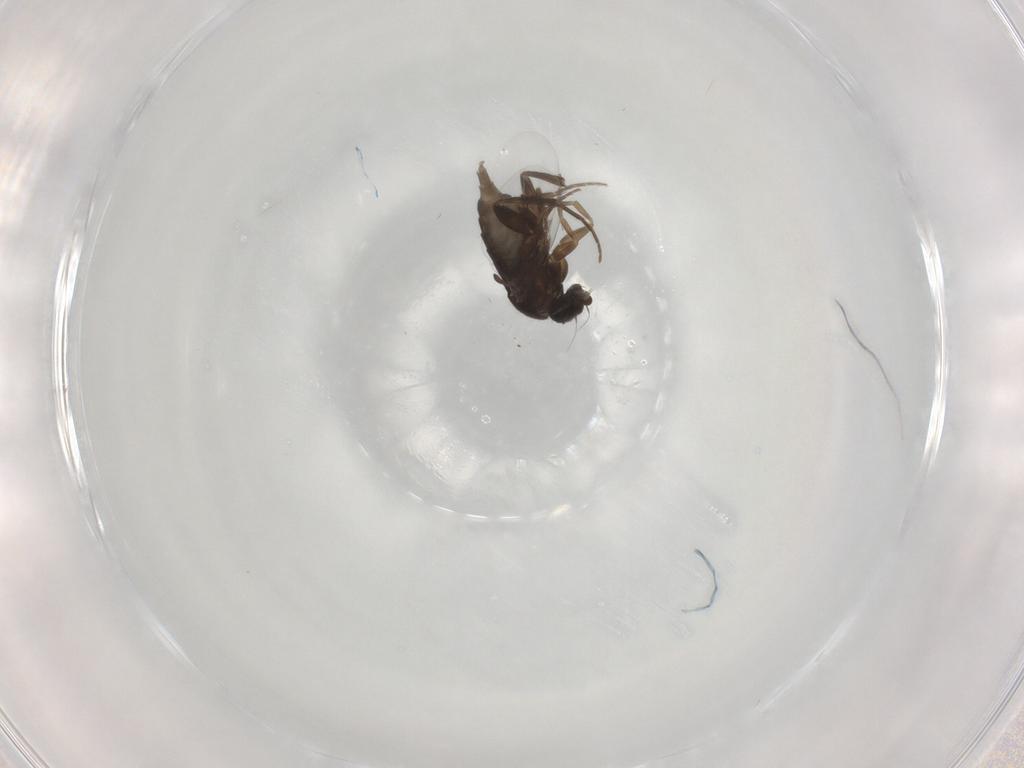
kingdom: Animalia
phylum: Arthropoda
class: Insecta
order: Diptera
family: Phoridae
